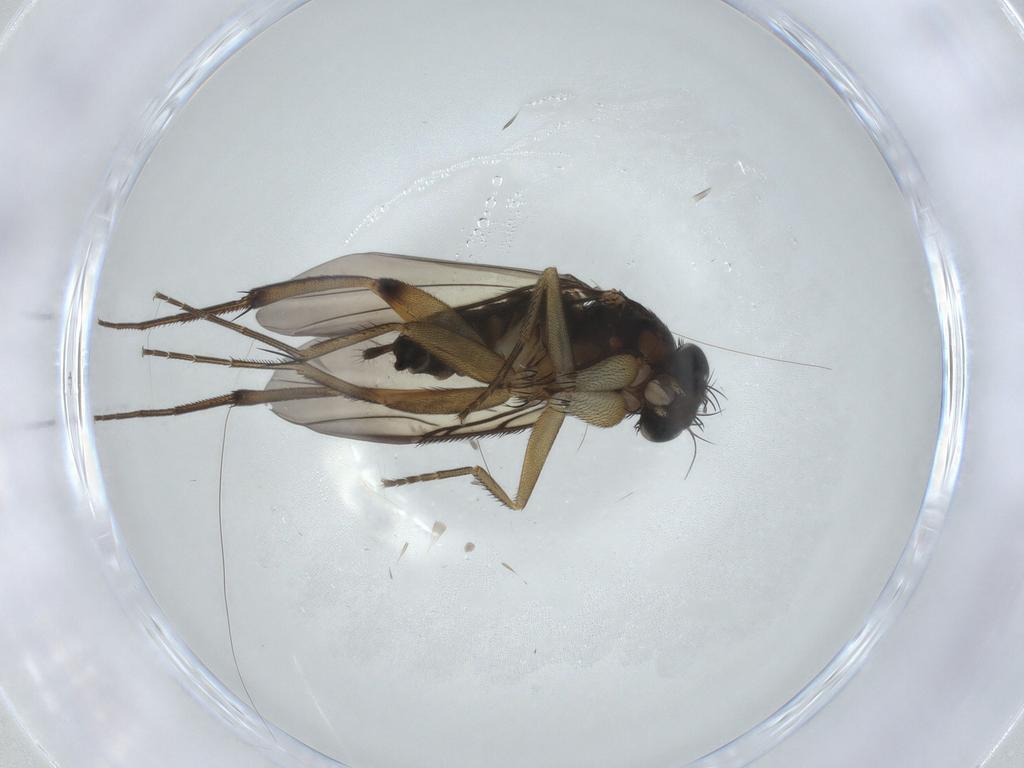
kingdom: Animalia
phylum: Arthropoda
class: Insecta
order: Diptera
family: Phoridae
